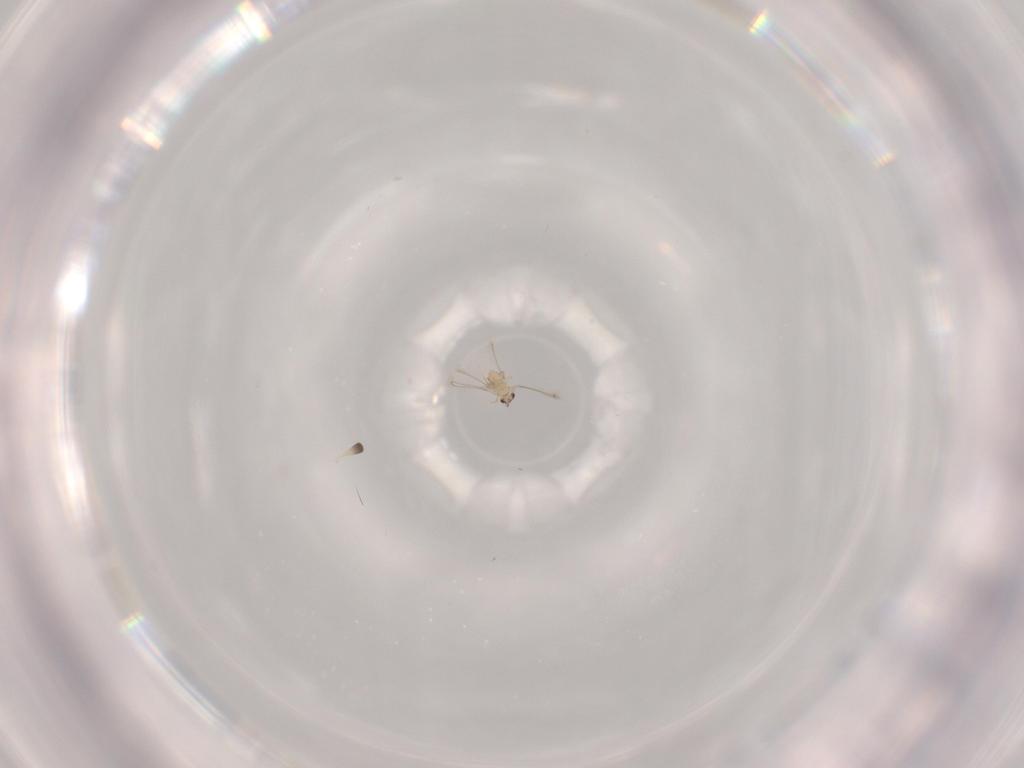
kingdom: Animalia
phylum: Arthropoda
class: Insecta
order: Hymenoptera
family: Mymaridae
